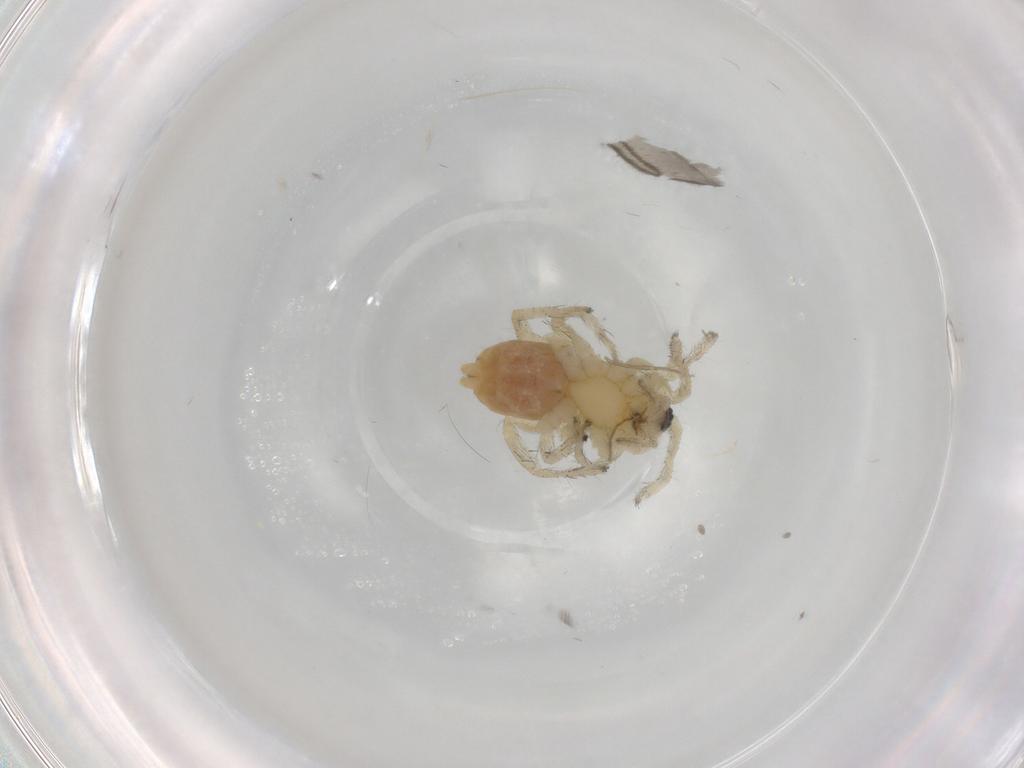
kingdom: Animalia
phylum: Arthropoda
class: Arachnida
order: Araneae
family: Anyphaenidae
